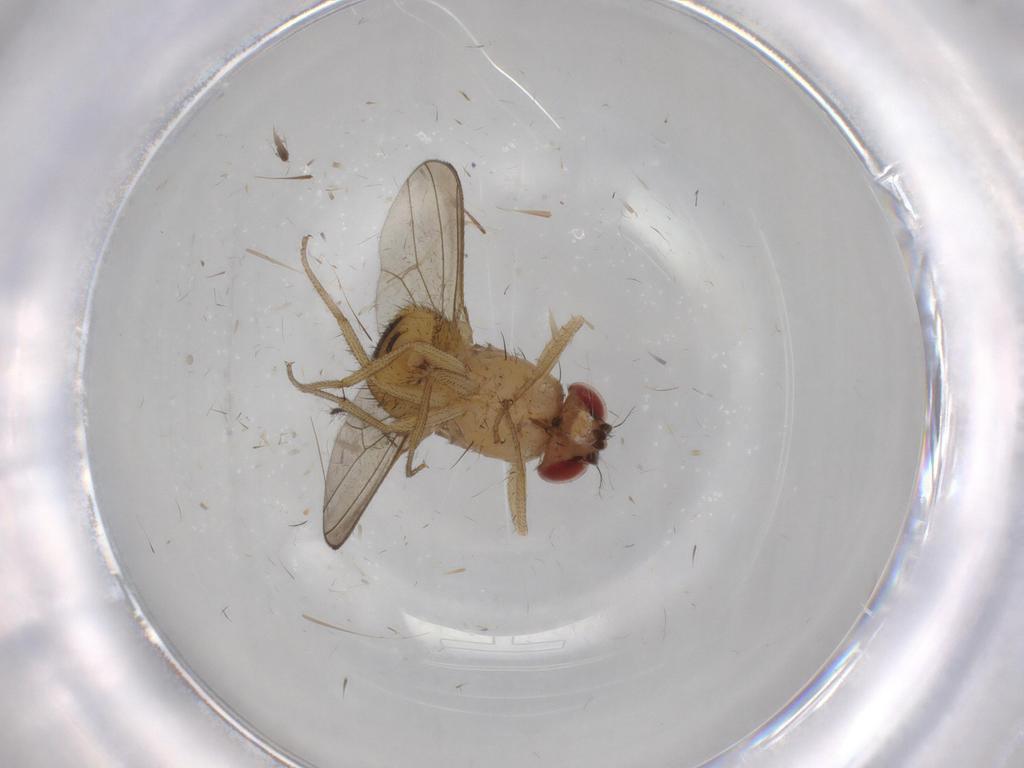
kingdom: Animalia
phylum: Arthropoda
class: Insecta
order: Diptera
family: Drosophilidae
